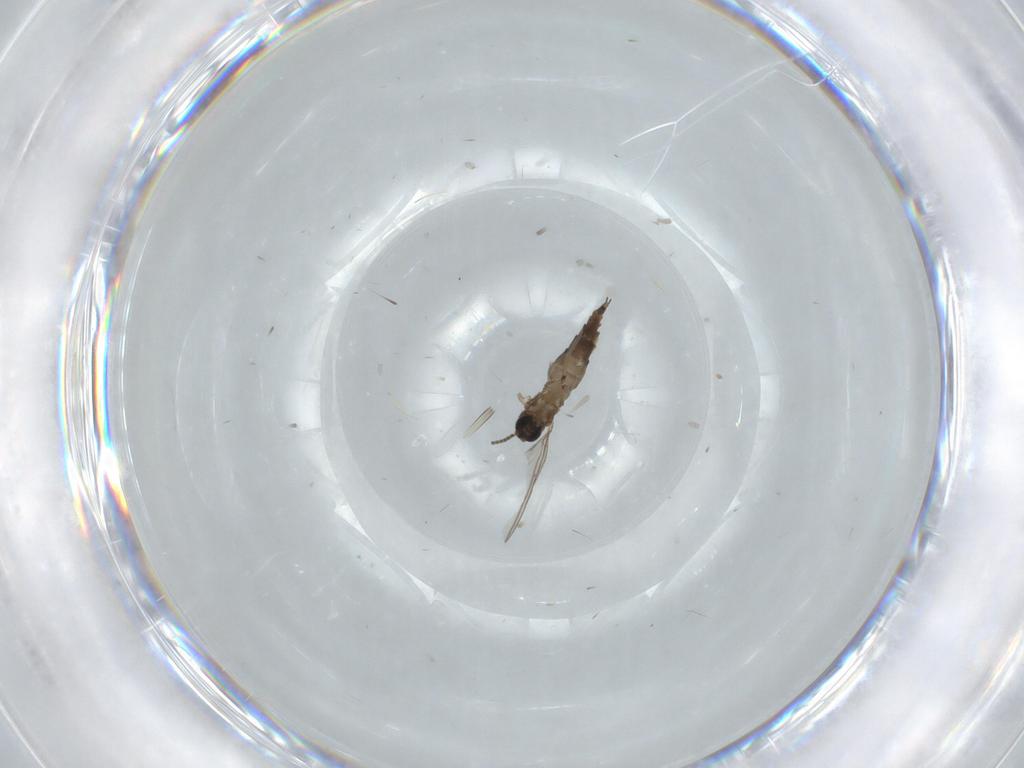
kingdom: Animalia
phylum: Arthropoda
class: Insecta
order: Diptera
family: Sciaridae
